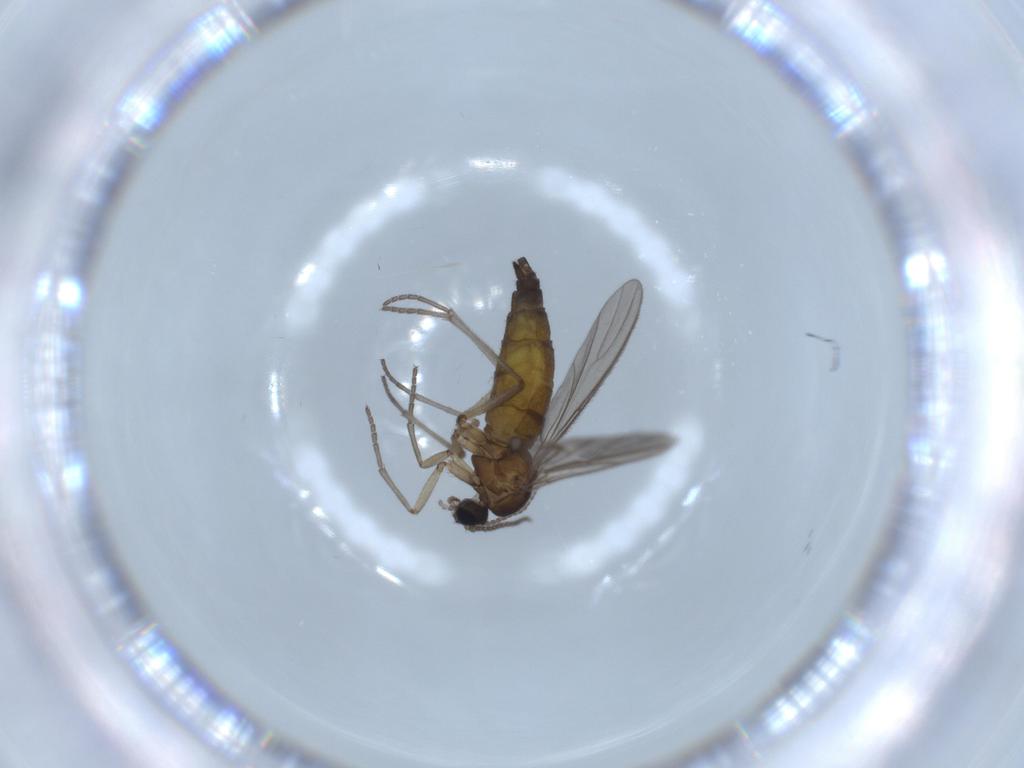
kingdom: Animalia
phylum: Arthropoda
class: Insecta
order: Diptera
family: Sciaridae
